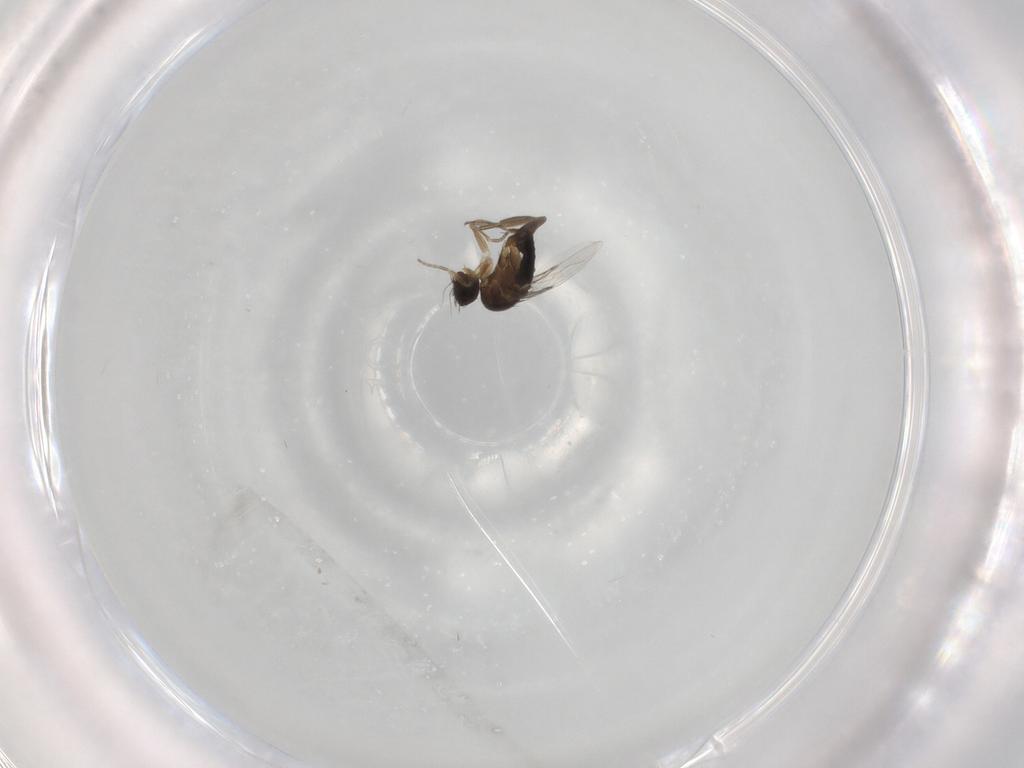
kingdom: Animalia
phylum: Arthropoda
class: Insecta
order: Diptera
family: Phoridae
